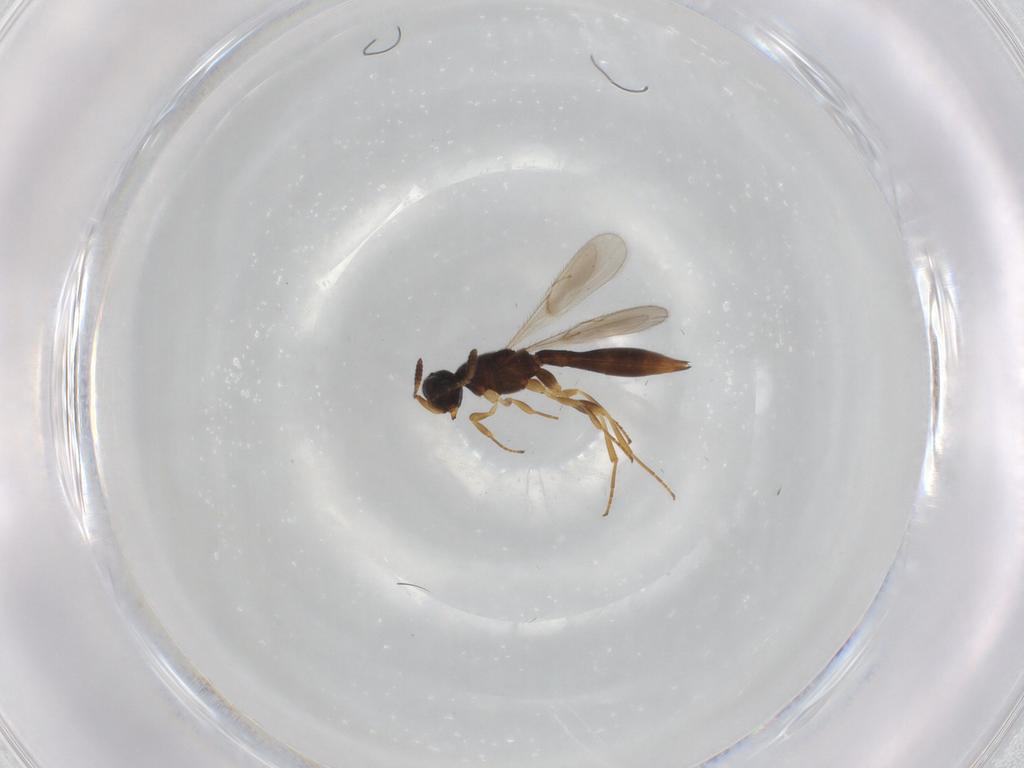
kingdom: Animalia
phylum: Arthropoda
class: Insecta
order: Hymenoptera
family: Scelionidae
